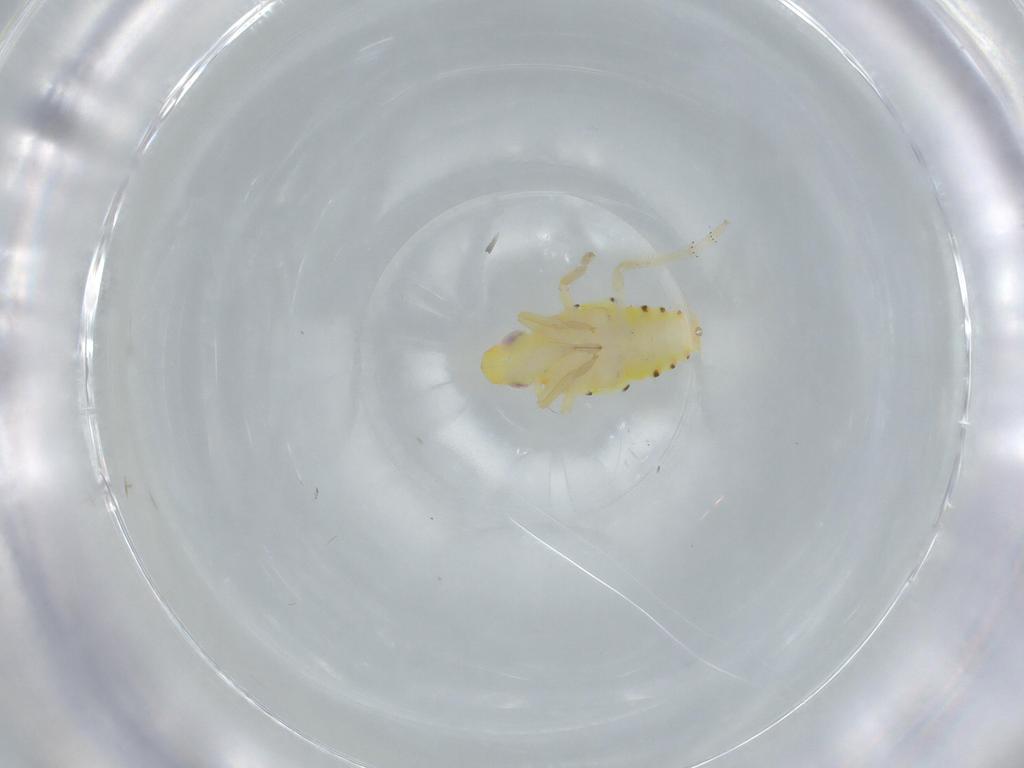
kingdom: Animalia
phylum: Arthropoda
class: Insecta
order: Hemiptera
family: Tropiduchidae
